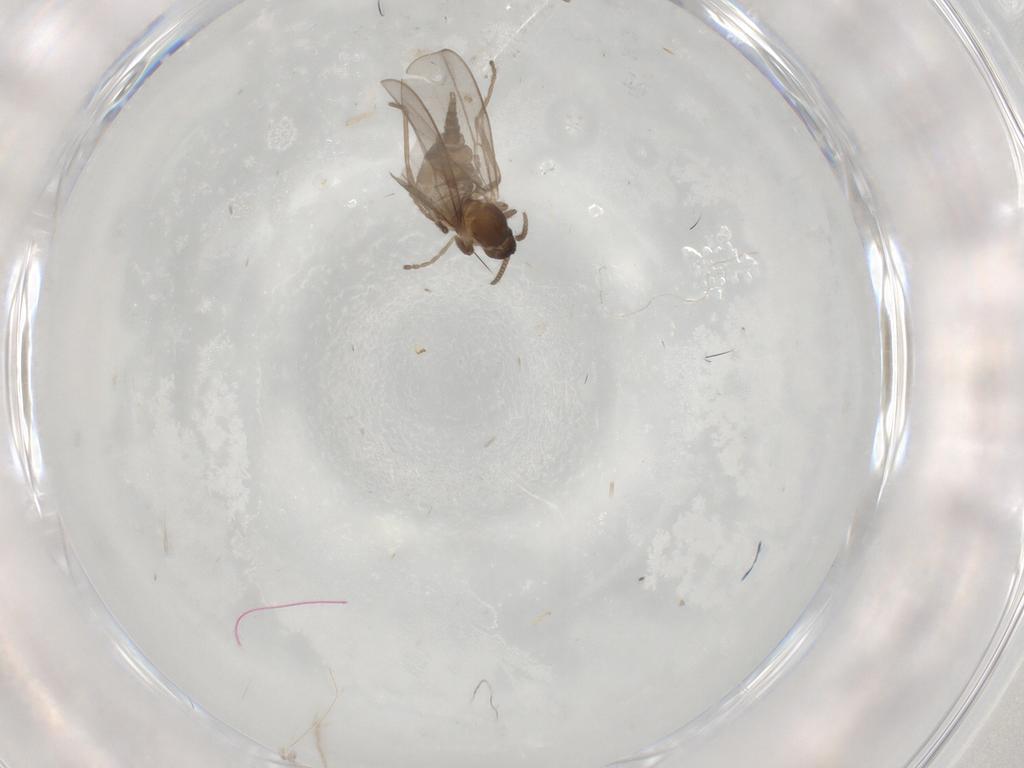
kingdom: Animalia
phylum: Arthropoda
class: Insecta
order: Diptera
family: Cecidomyiidae
